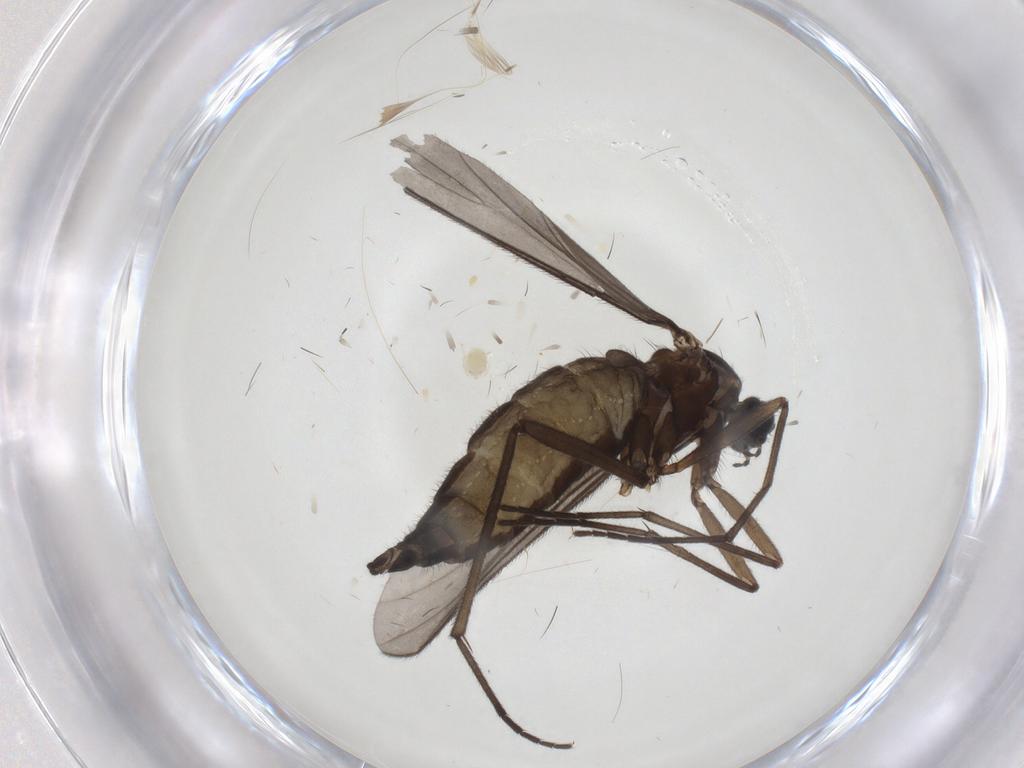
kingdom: Animalia
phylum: Arthropoda
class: Insecta
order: Diptera
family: Sciaridae
